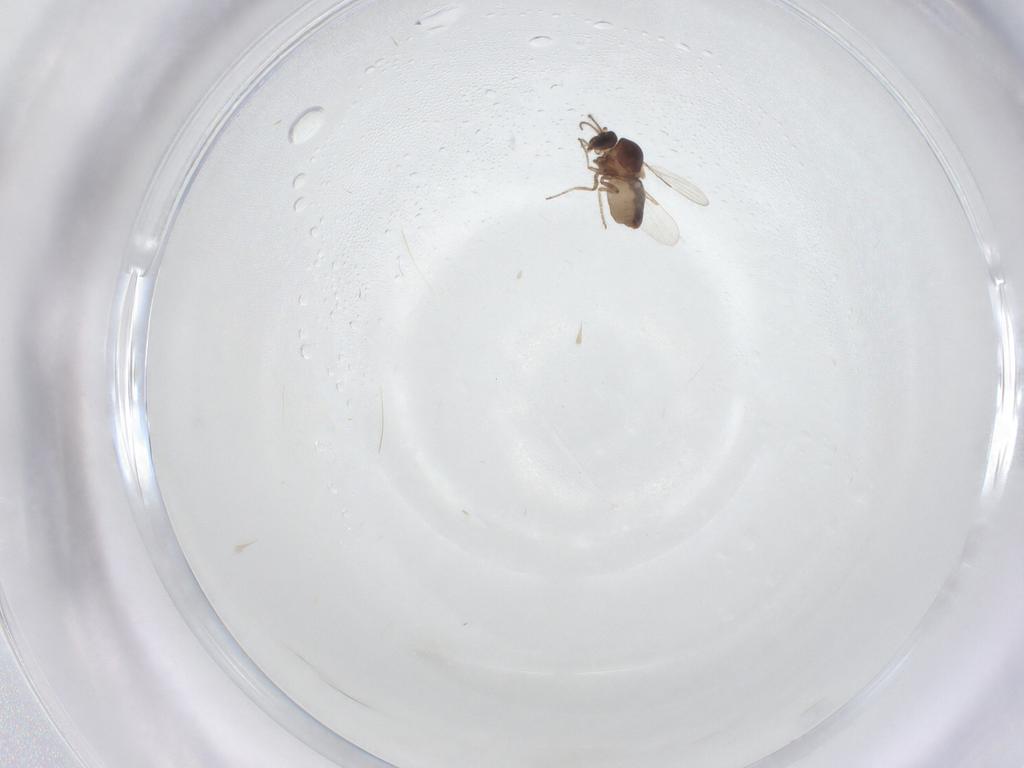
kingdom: Animalia
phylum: Arthropoda
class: Insecta
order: Diptera
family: Ceratopogonidae
